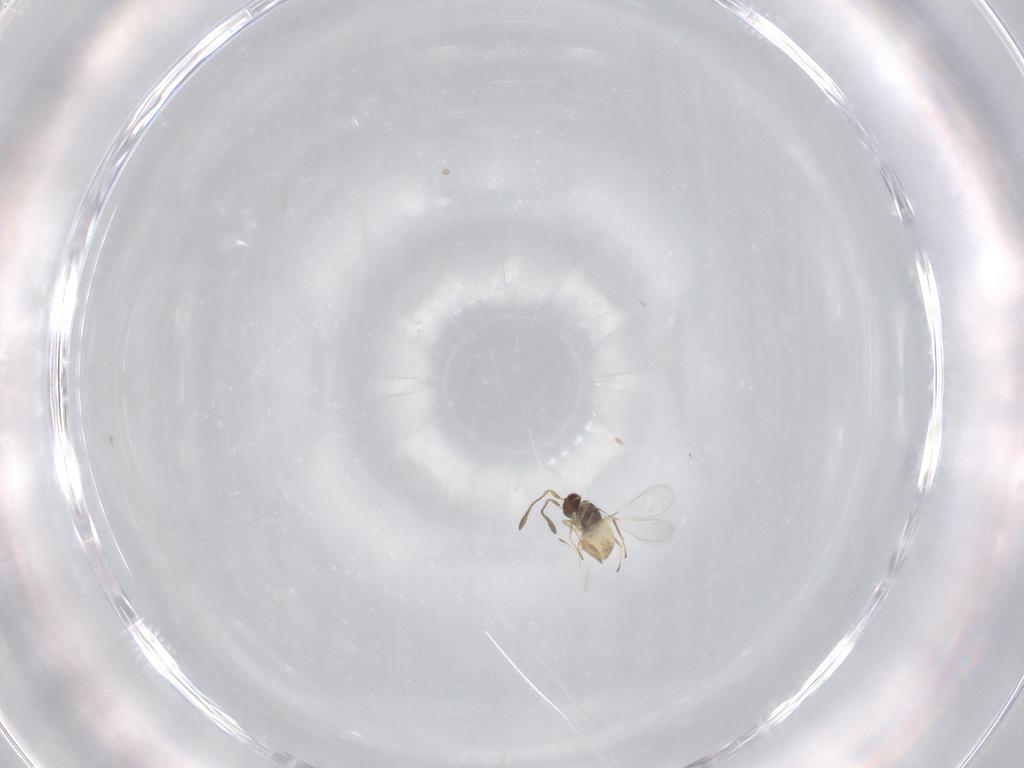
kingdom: Animalia
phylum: Arthropoda
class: Insecta
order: Hymenoptera
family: Mymaridae
